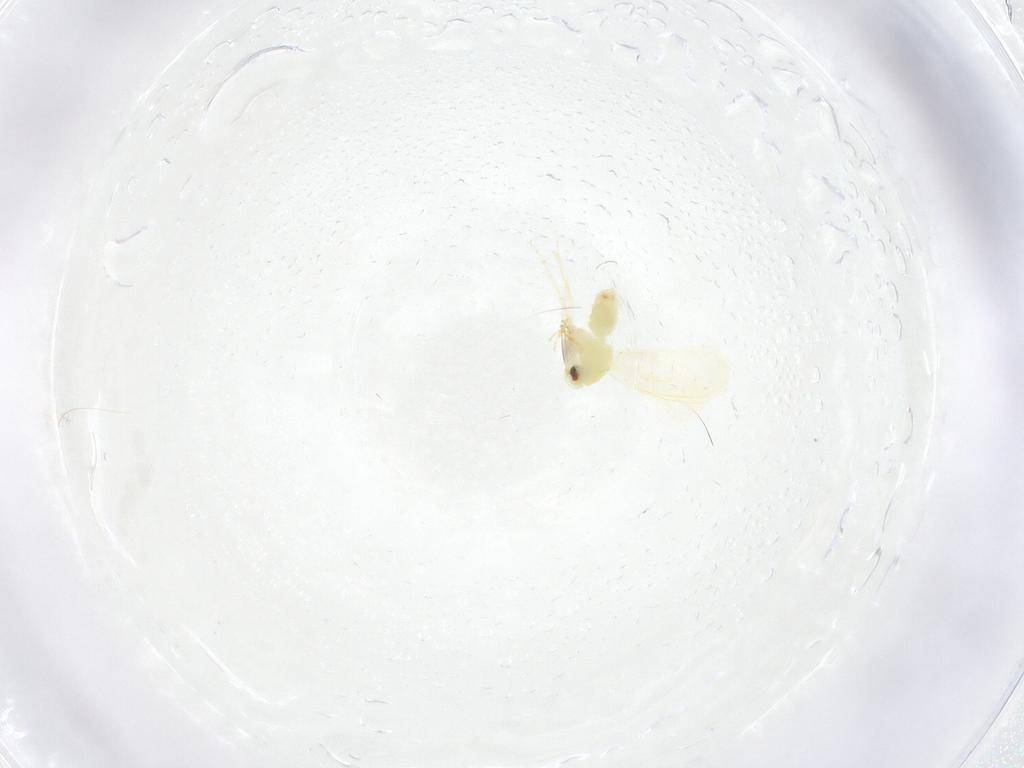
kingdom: Animalia
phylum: Arthropoda
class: Insecta
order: Hemiptera
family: Aleyrodidae
